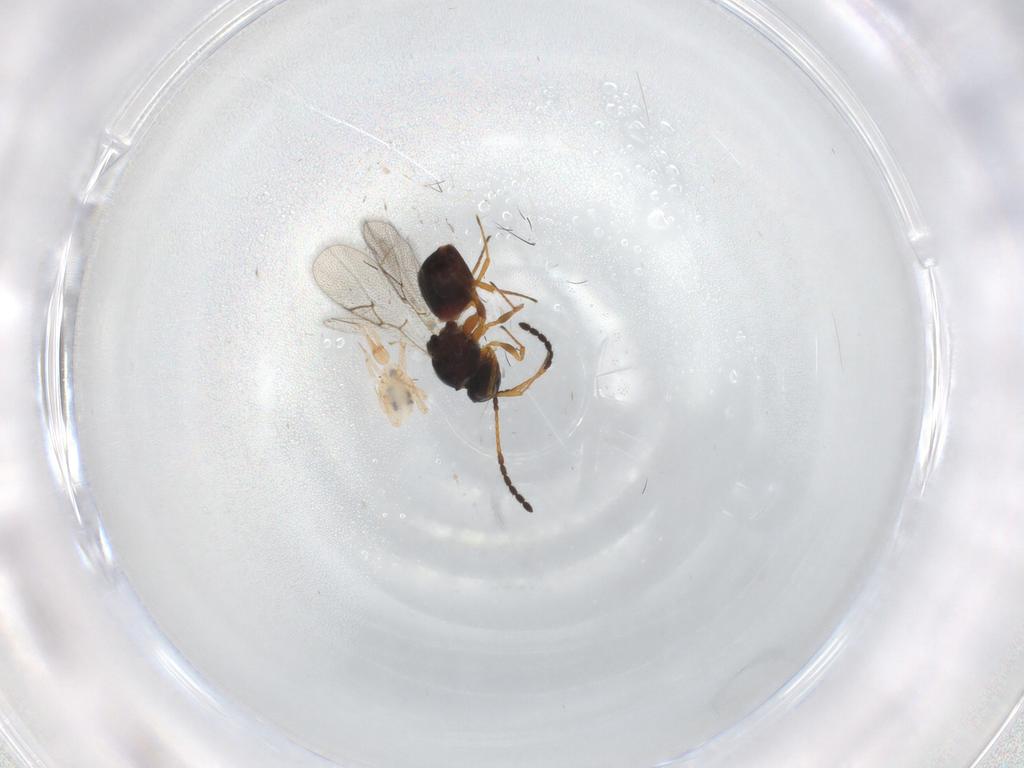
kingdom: Animalia
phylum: Arthropoda
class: Insecta
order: Hymenoptera
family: Figitidae
